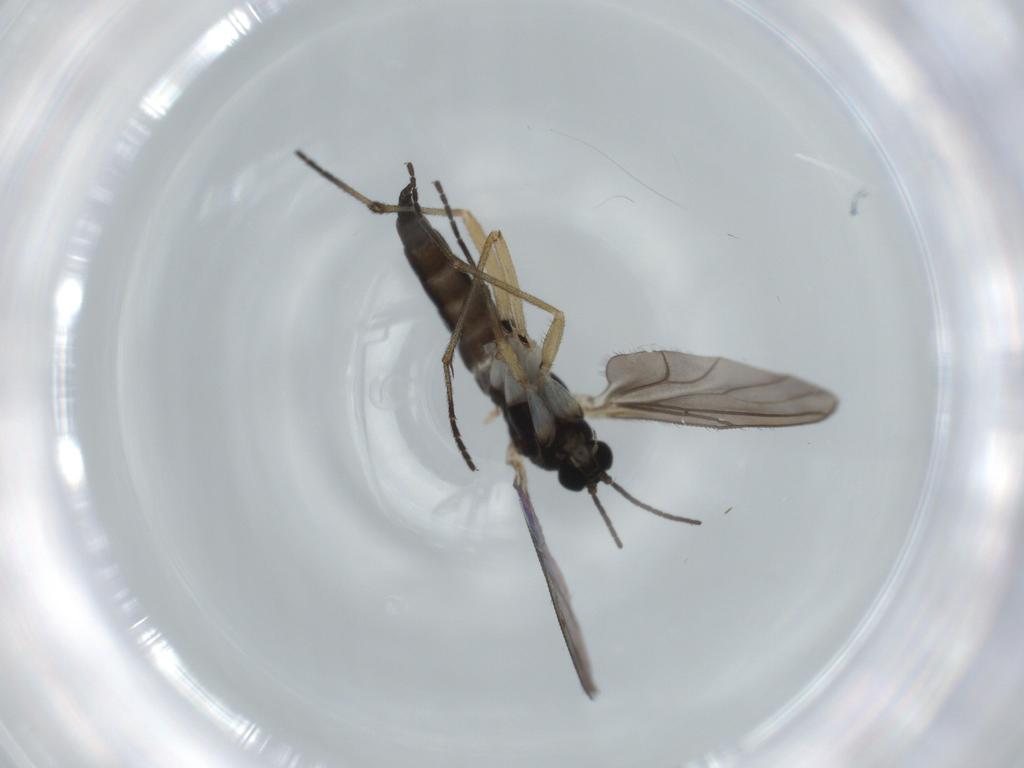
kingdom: Animalia
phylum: Arthropoda
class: Insecta
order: Diptera
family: Sciaridae
